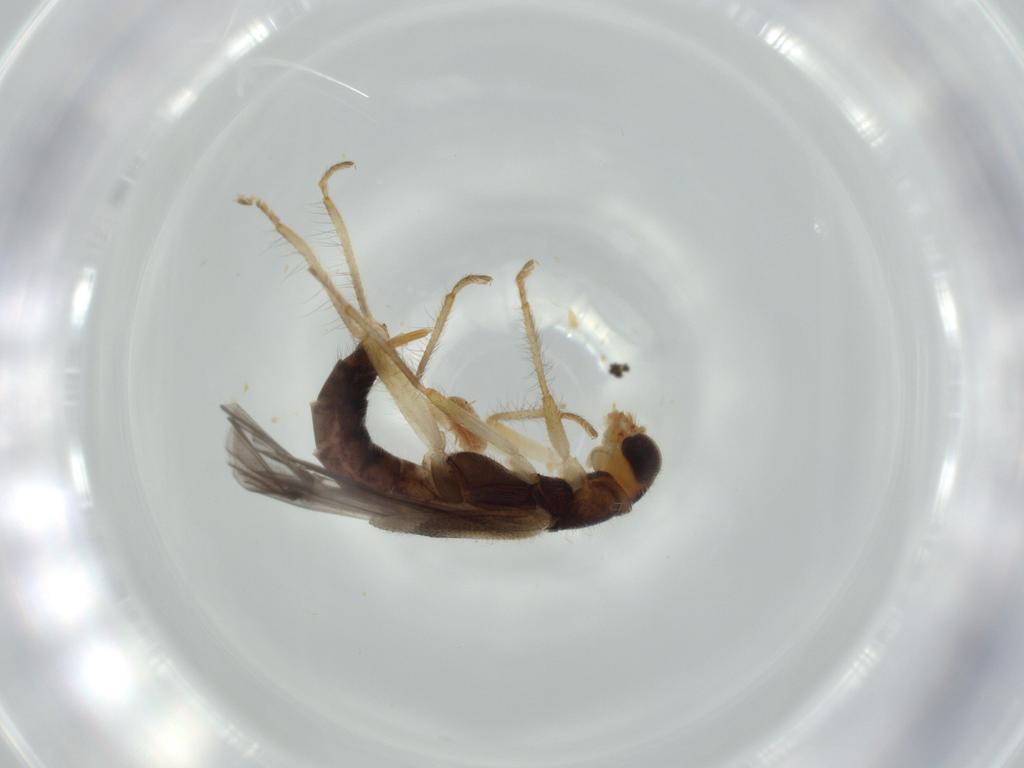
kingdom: Animalia
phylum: Arthropoda
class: Insecta
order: Coleoptera
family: Cleridae
